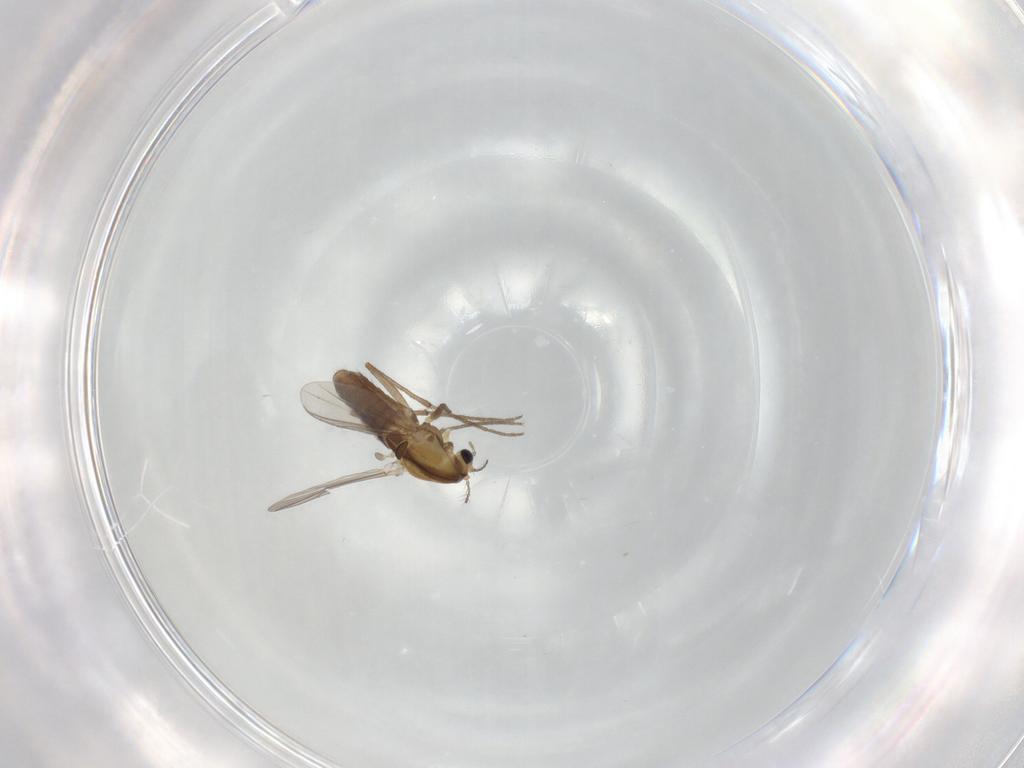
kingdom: Animalia
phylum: Arthropoda
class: Insecta
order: Diptera
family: Chironomidae
